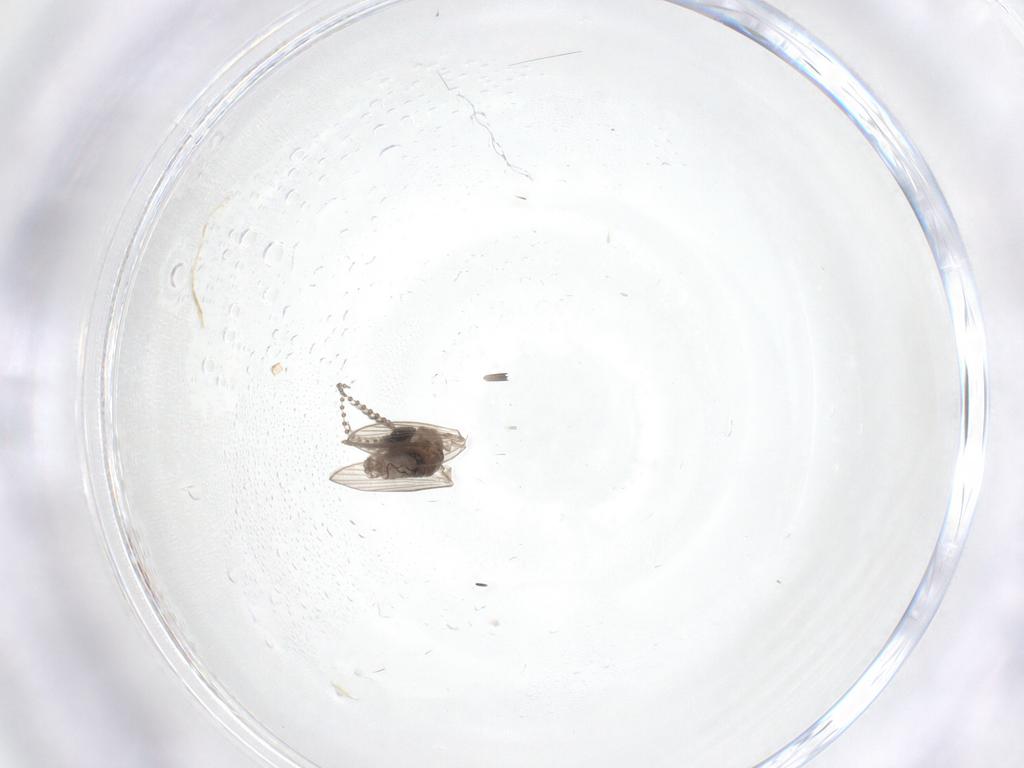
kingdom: Animalia
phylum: Arthropoda
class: Insecta
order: Diptera
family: Psychodidae
